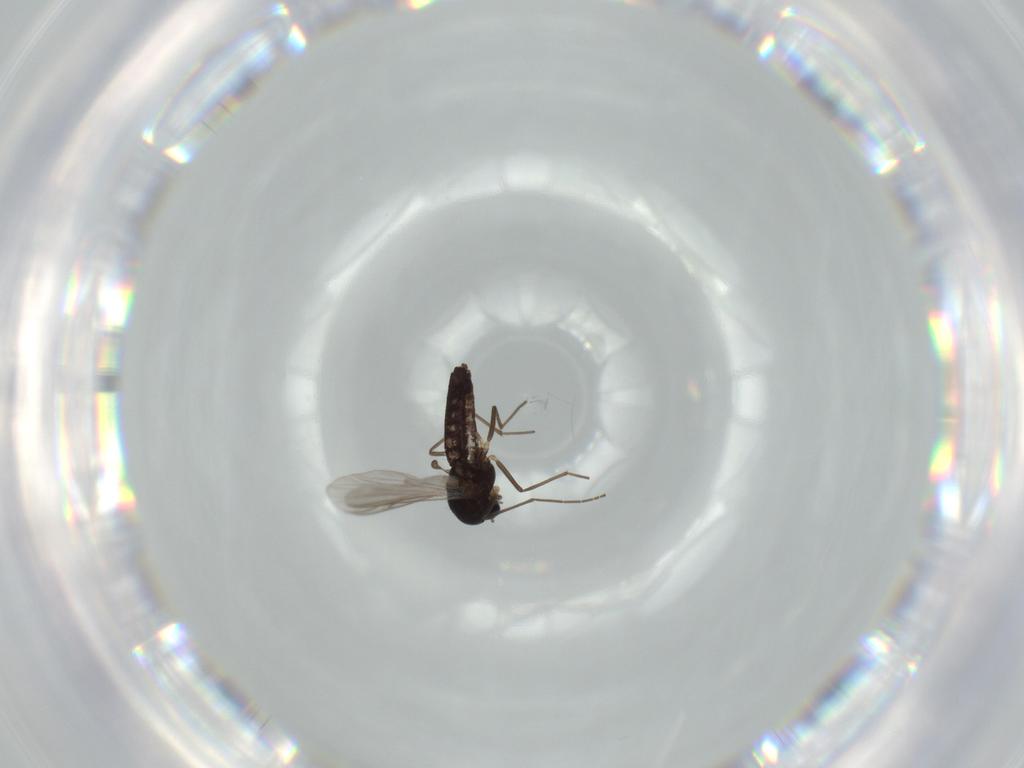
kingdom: Animalia
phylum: Arthropoda
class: Insecta
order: Diptera
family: Chironomidae
